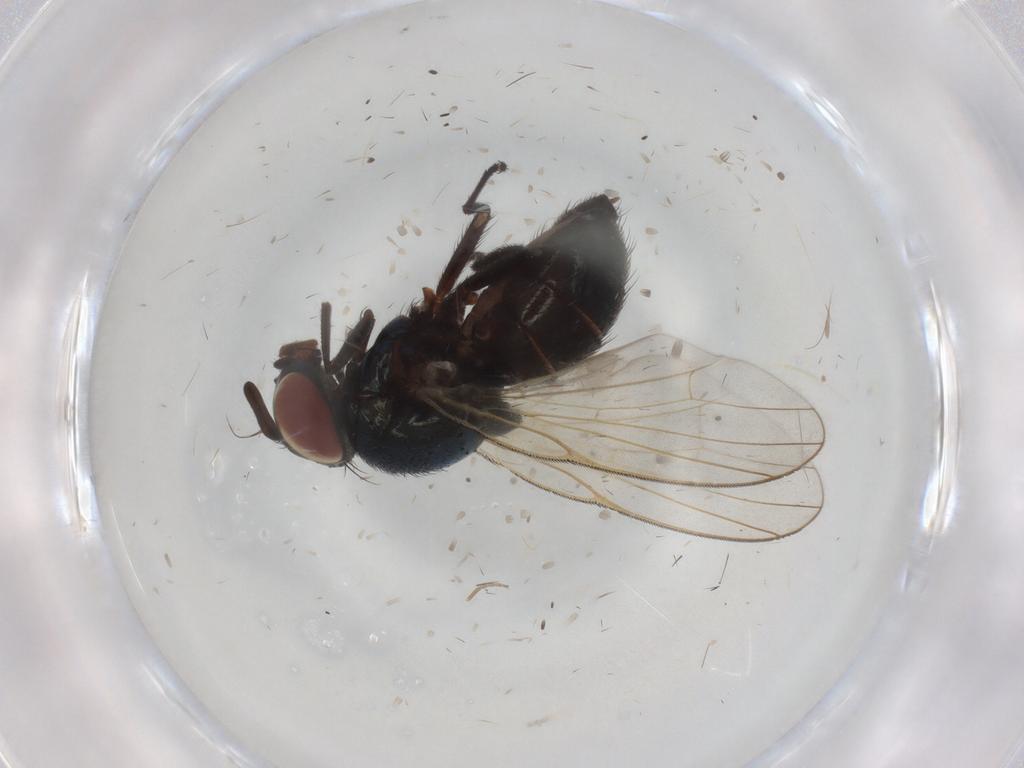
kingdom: Animalia
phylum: Arthropoda
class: Insecta
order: Diptera
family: Phoridae
